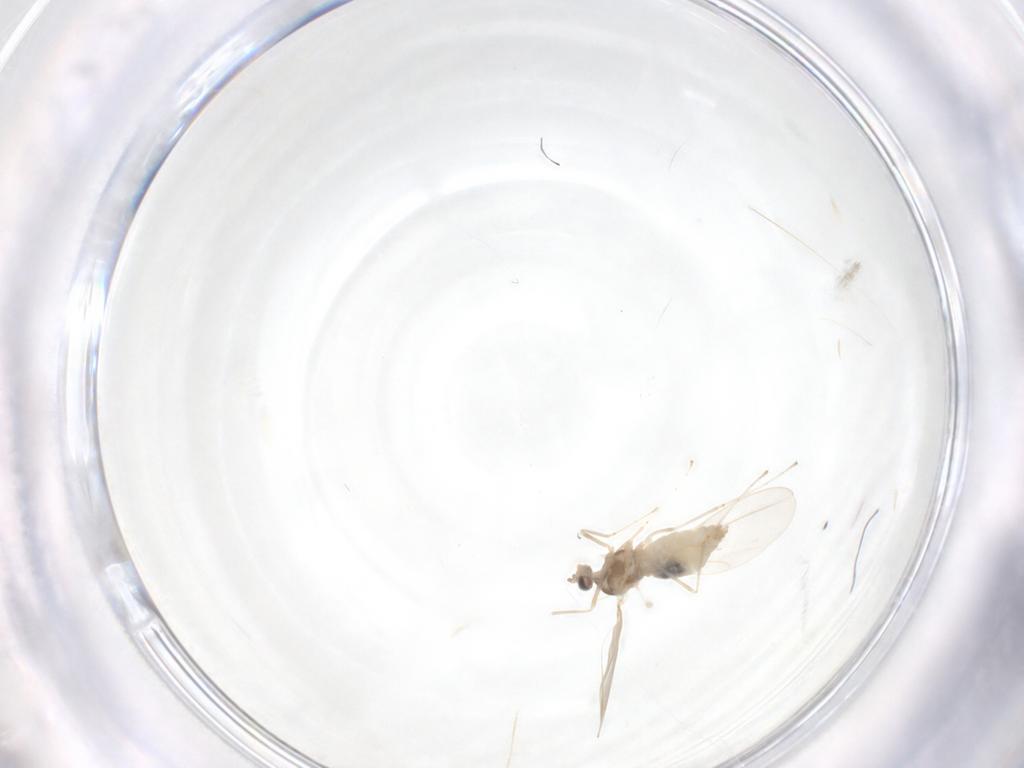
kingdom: Animalia
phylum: Arthropoda
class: Insecta
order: Diptera
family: Cecidomyiidae
